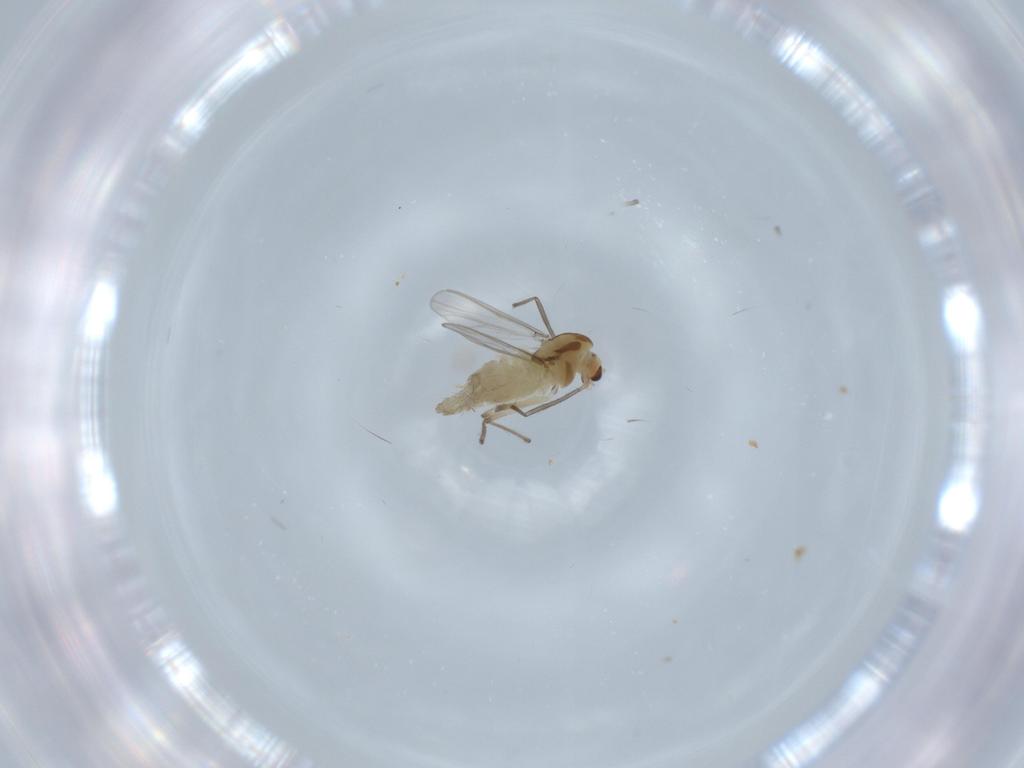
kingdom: Animalia
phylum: Arthropoda
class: Insecta
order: Diptera
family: Chironomidae
